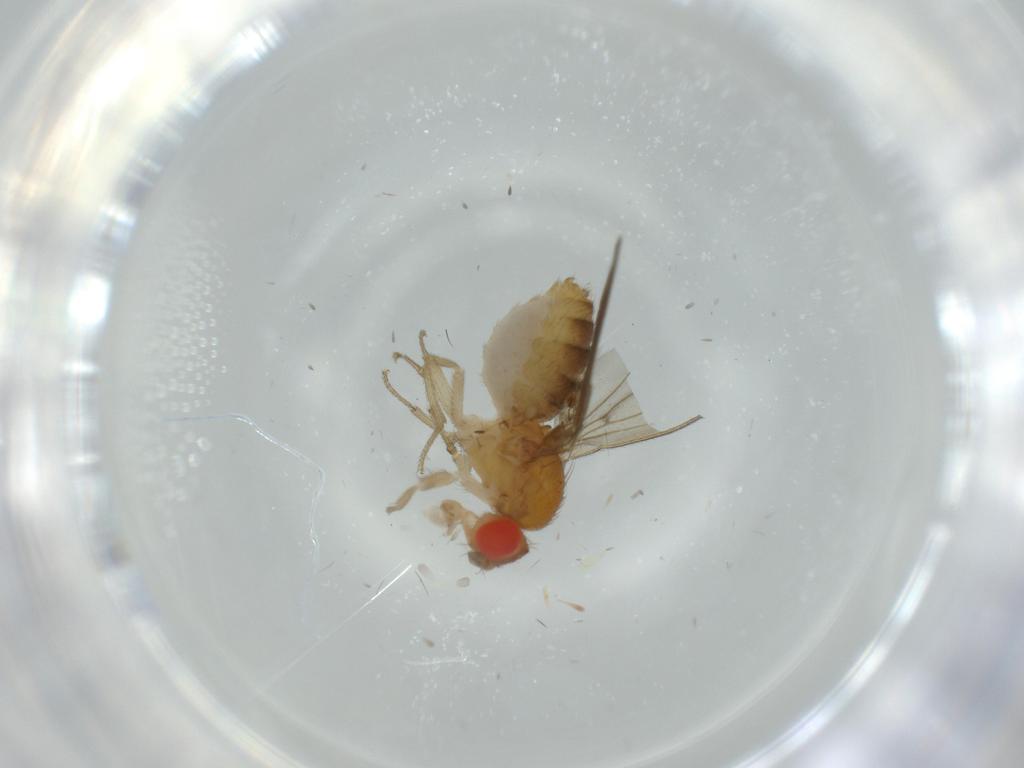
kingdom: Animalia
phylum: Arthropoda
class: Insecta
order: Diptera
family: Drosophilidae
